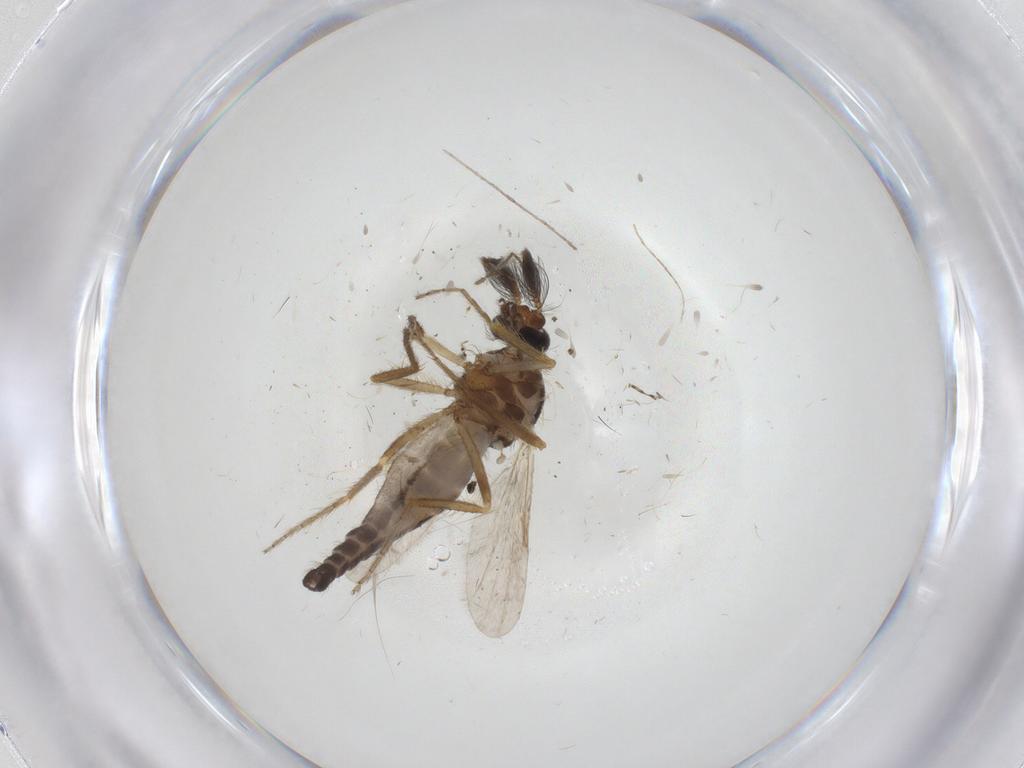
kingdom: Animalia
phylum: Arthropoda
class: Insecta
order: Diptera
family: Ceratopogonidae
